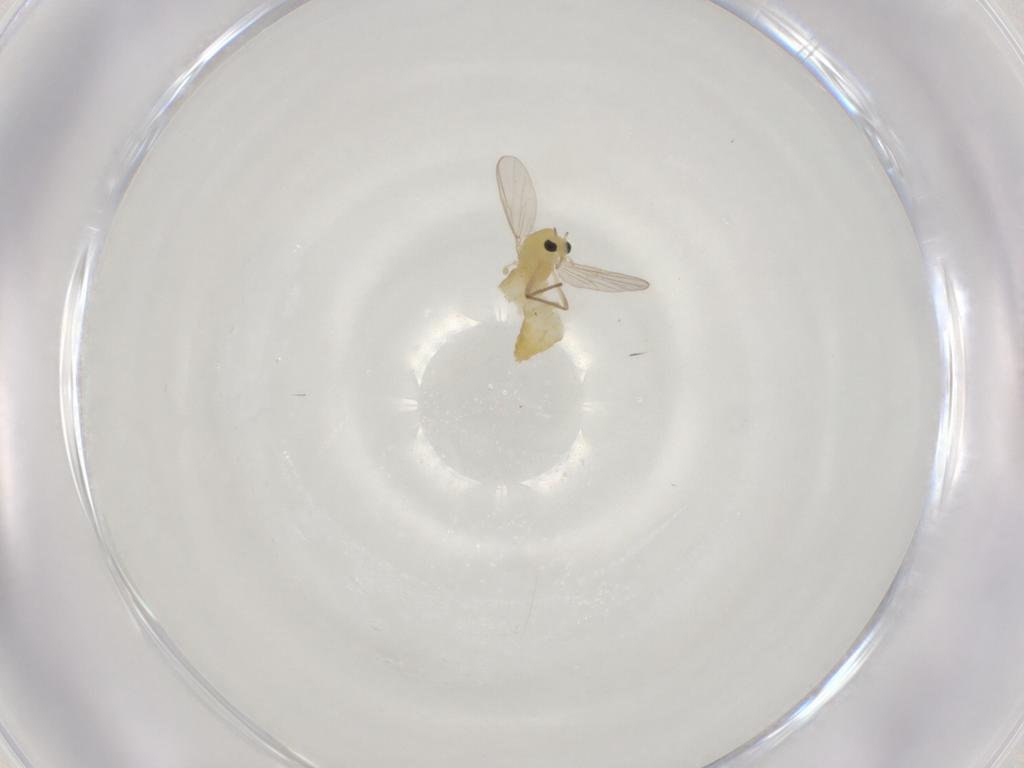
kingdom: Animalia
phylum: Arthropoda
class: Insecta
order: Diptera
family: Chironomidae
